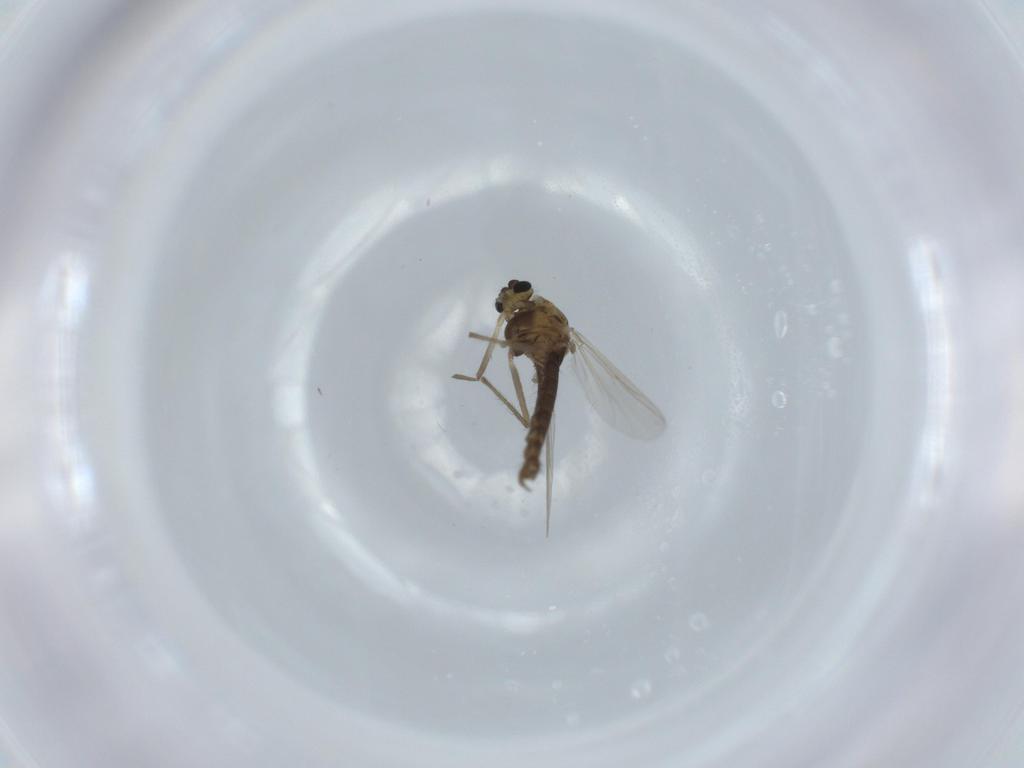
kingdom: Animalia
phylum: Arthropoda
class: Insecta
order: Diptera
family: Chironomidae
